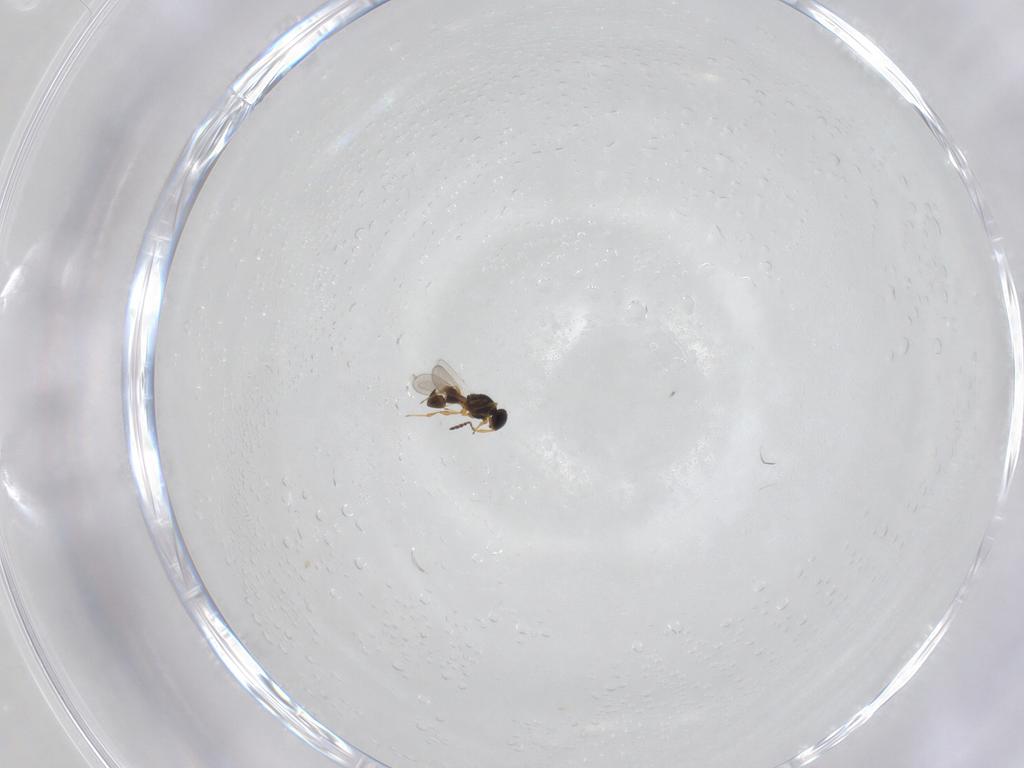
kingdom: Animalia
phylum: Arthropoda
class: Insecta
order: Hymenoptera
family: Platygastridae
